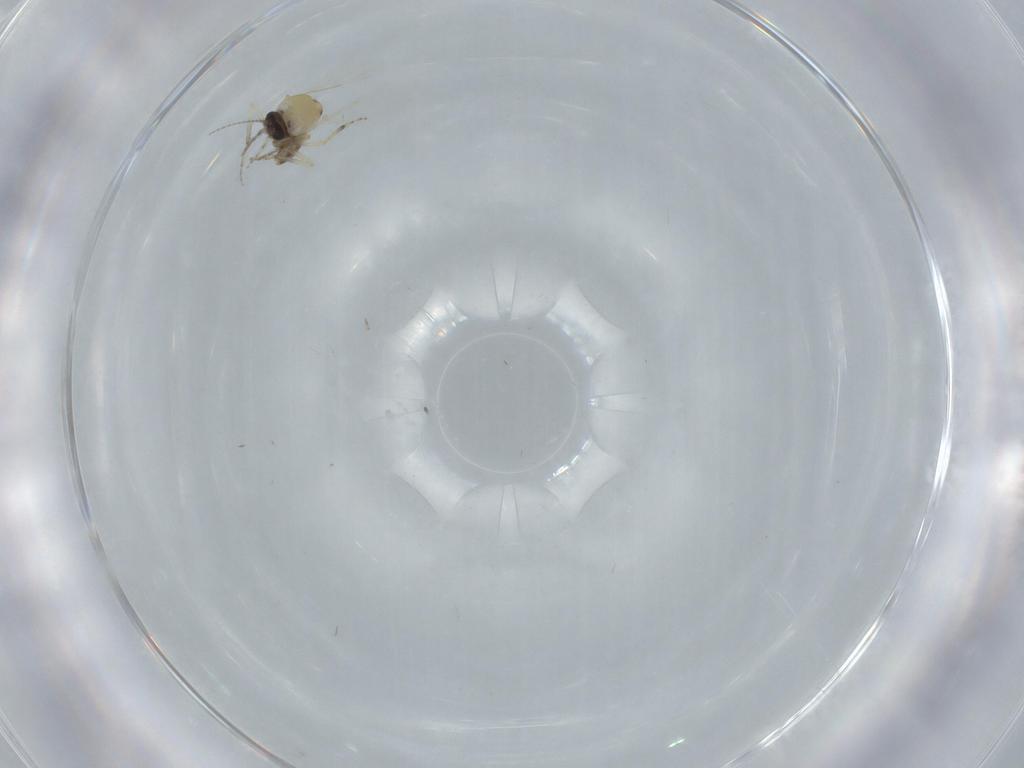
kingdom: Animalia
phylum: Arthropoda
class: Insecta
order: Diptera
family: Ceratopogonidae
